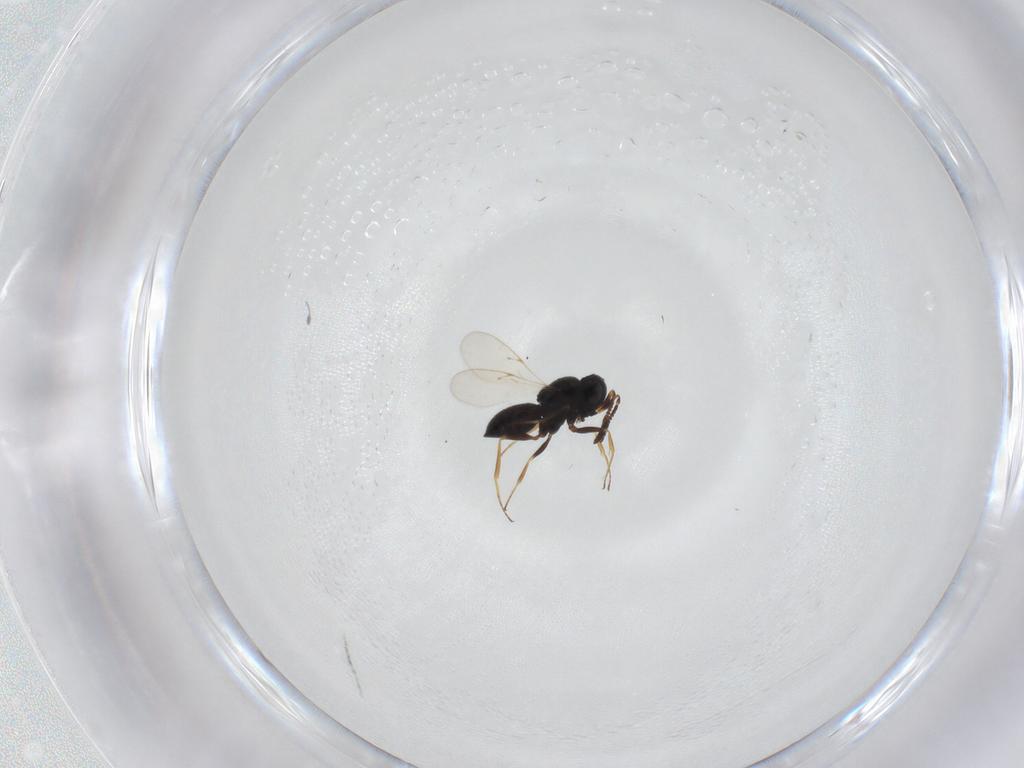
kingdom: Animalia
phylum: Arthropoda
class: Insecta
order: Hymenoptera
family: Scelionidae
